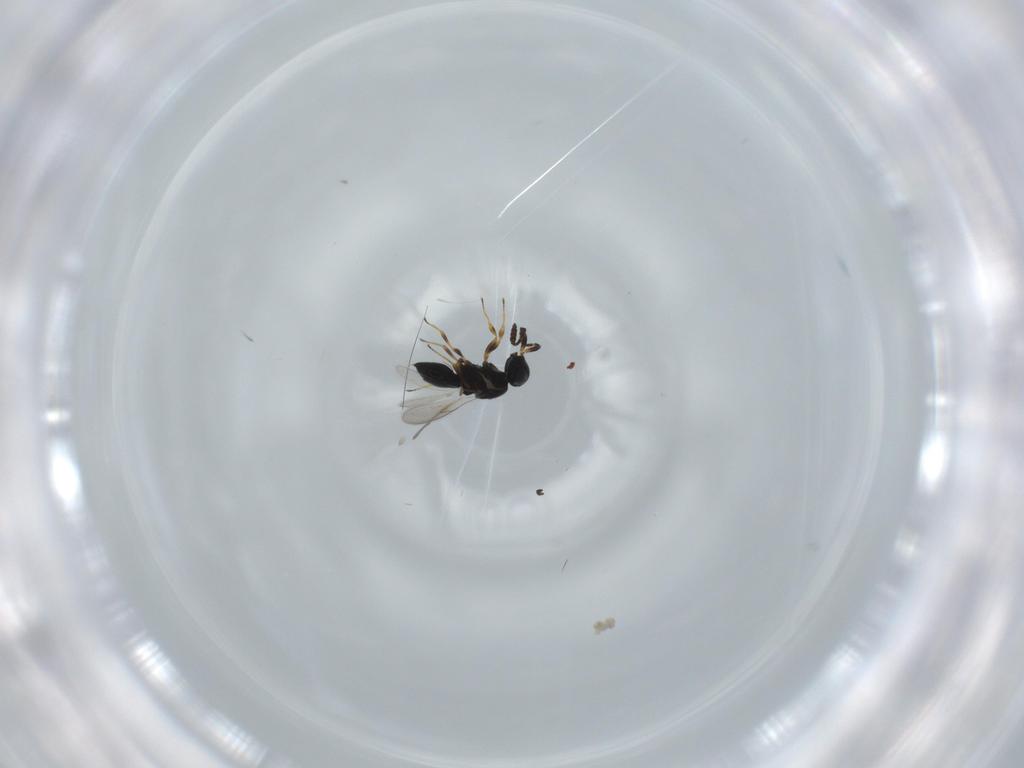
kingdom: Animalia
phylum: Arthropoda
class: Insecta
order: Hymenoptera
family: Scelionidae
